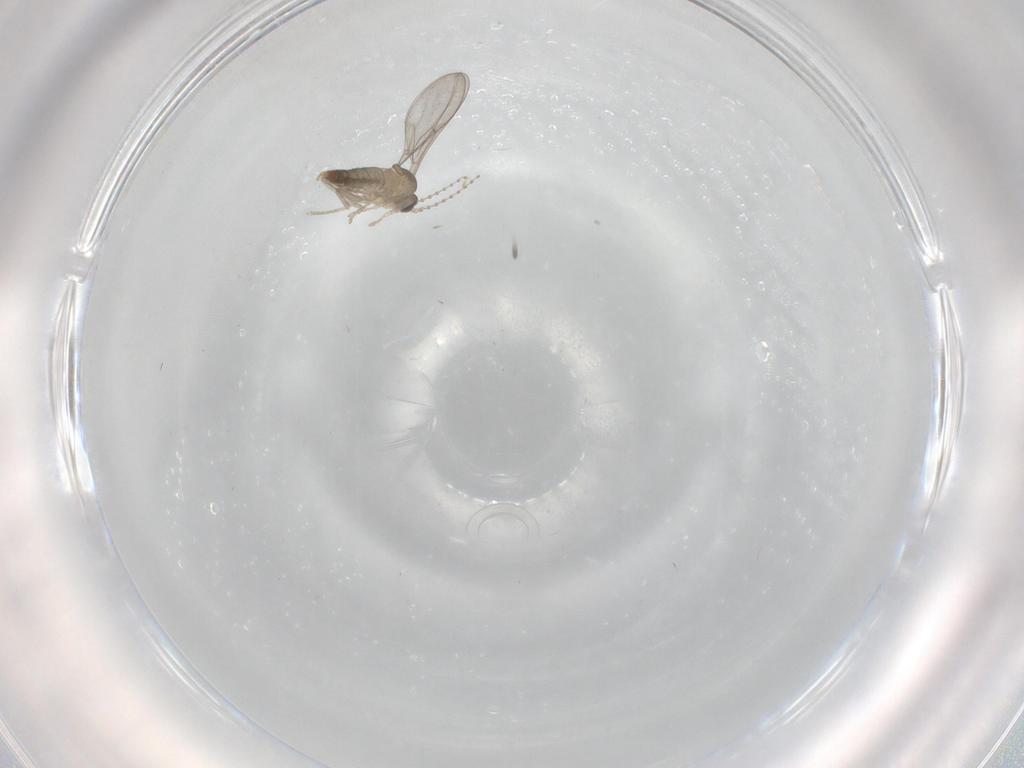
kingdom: Animalia
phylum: Arthropoda
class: Insecta
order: Diptera
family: Cecidomyiidae
